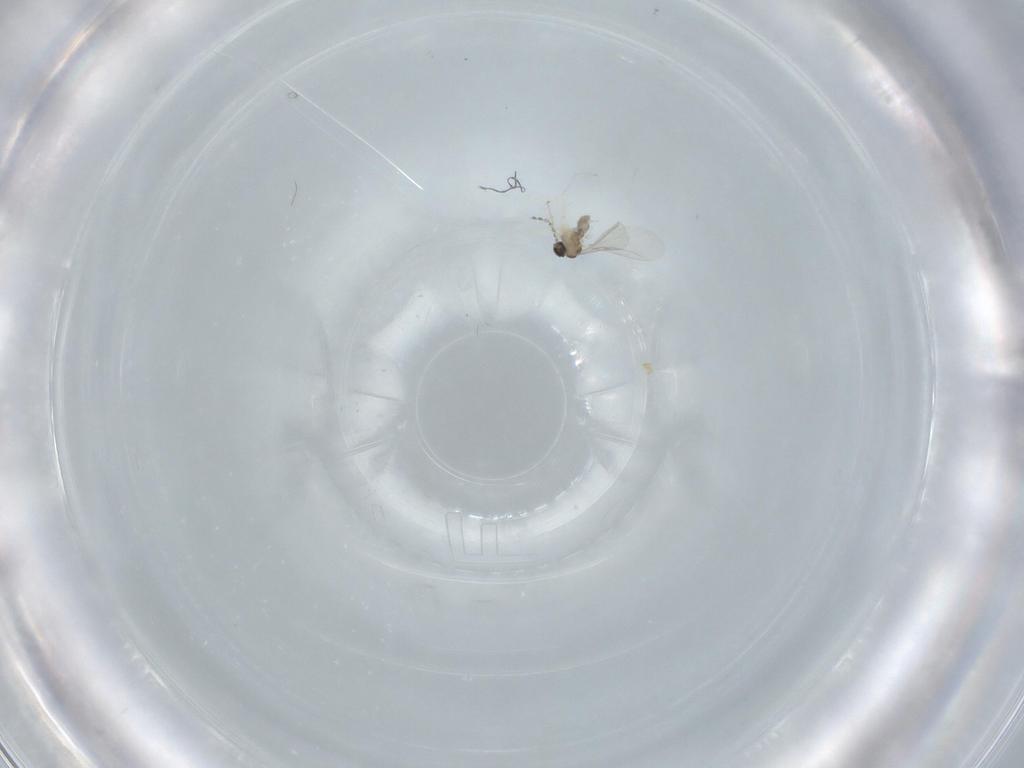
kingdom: Animalia
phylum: Arthropoda
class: Insecta
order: Diptera
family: Cecidomyiidae
